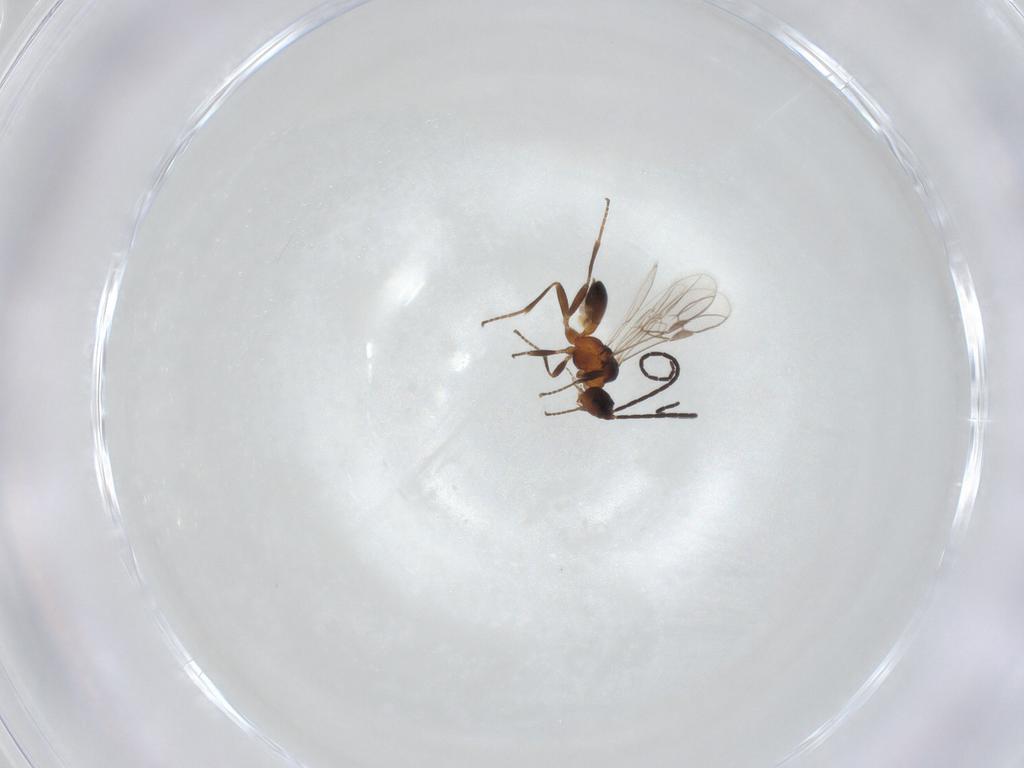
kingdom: Animalia
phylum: Arthropoda
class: Insecta
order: Hymenoptera
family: Braconidae
